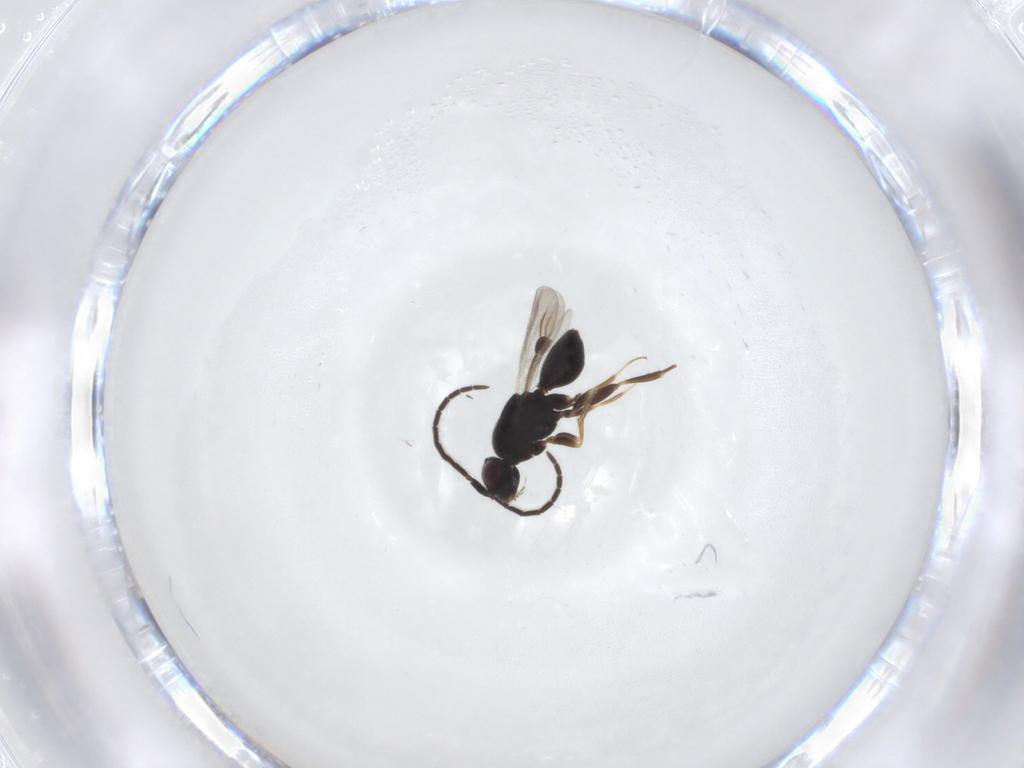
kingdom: Animalia
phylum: Arthropoda
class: Insecta
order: Hymenoptera
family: Megaspilidae
